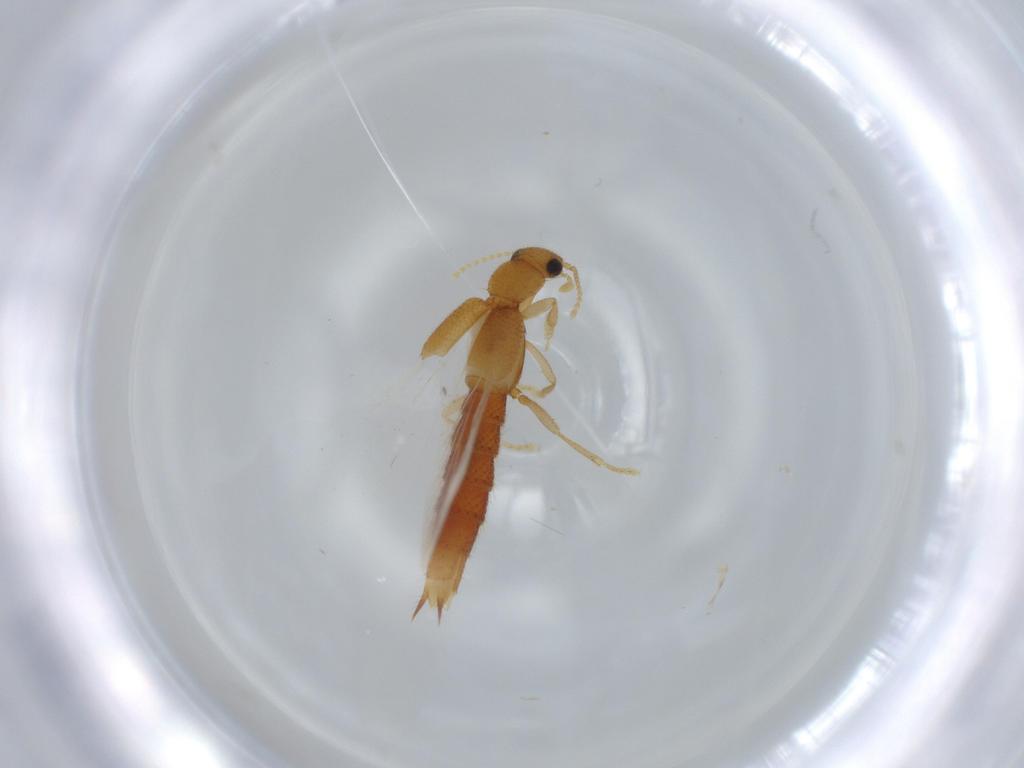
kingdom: Animalia
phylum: Arthropoda
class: Insecta
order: Coleoptera
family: Staphylinidae
